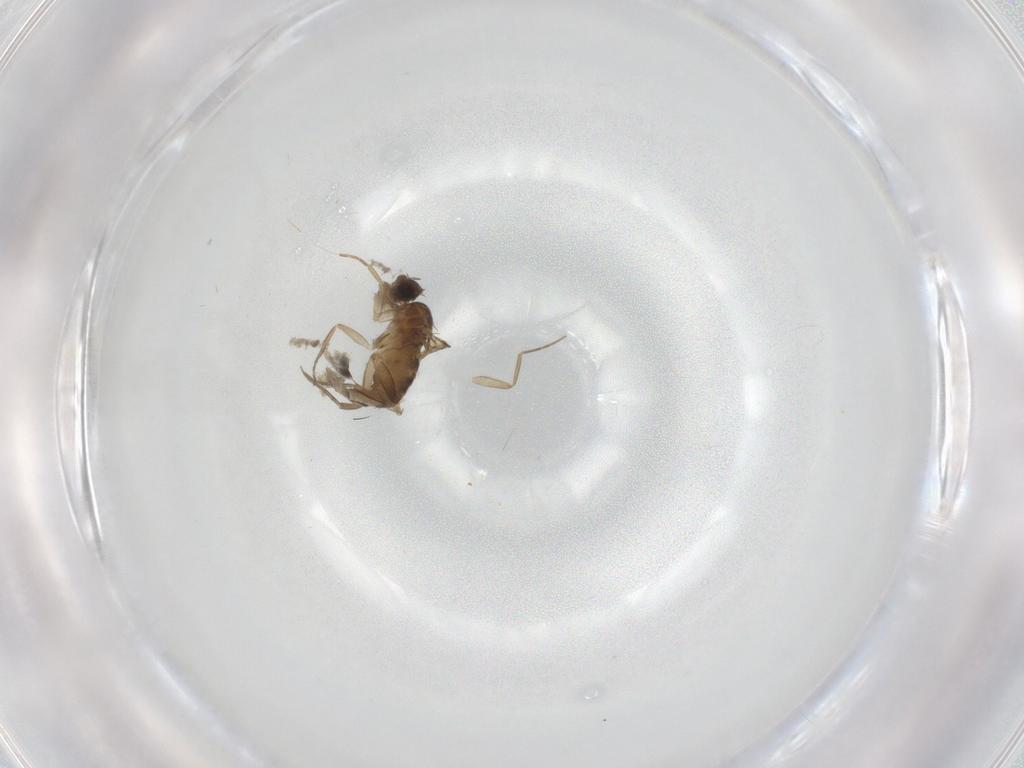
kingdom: Animalia
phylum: Arthropoda
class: Insecta
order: Diptera
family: Phoridae
